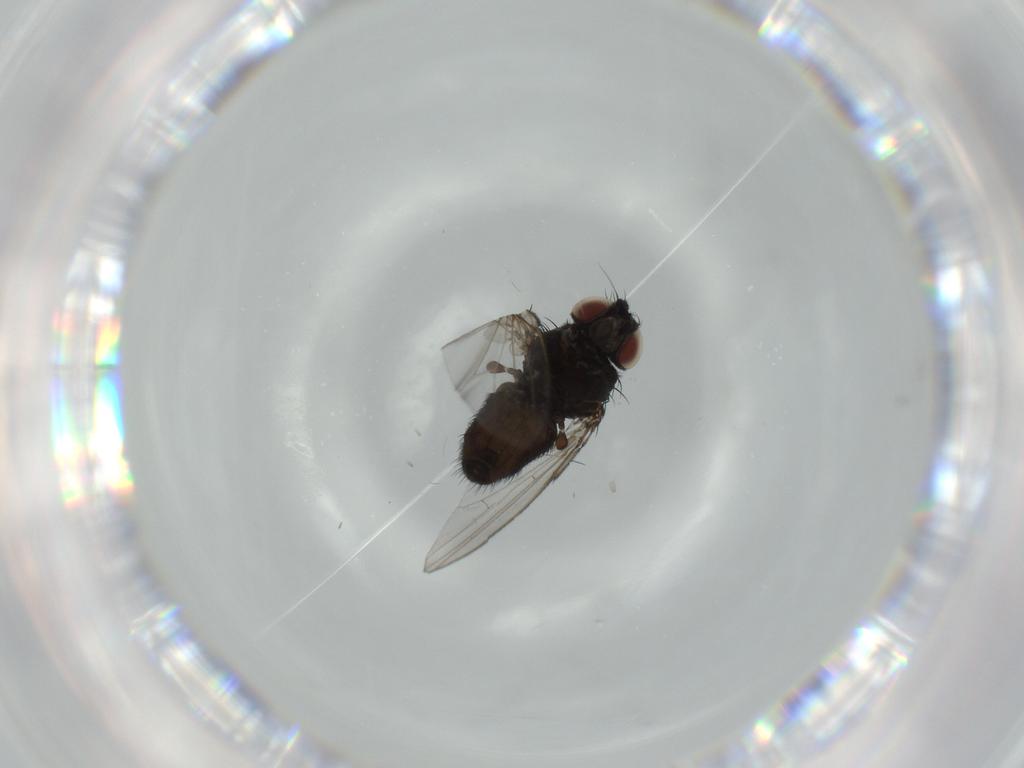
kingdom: Animalia
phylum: Arthropoda
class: Insecta
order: Diptera
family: Milichiidae
